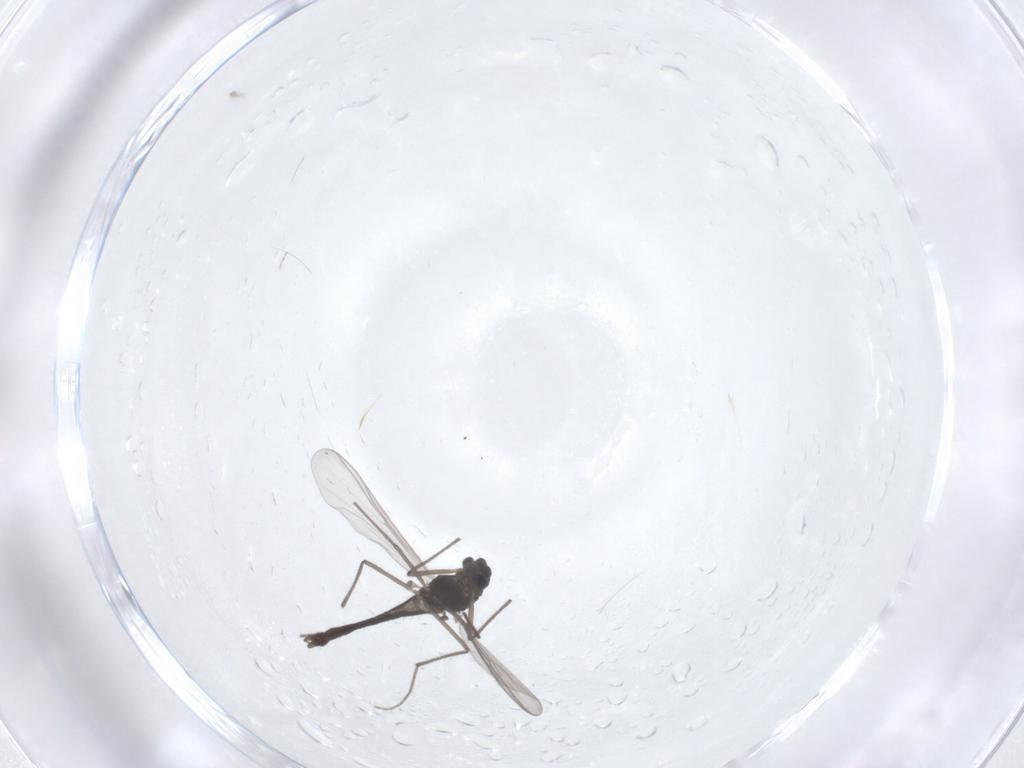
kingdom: Animalia
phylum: Arthropoda
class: Insecta
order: Diptera
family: Chironomidae
